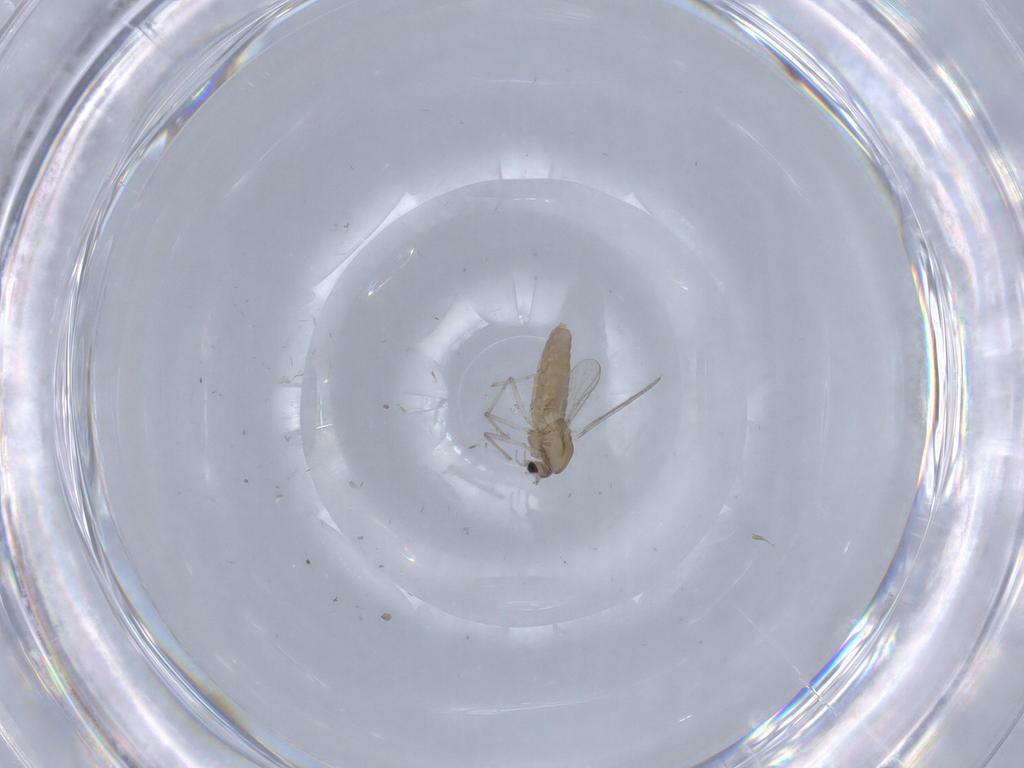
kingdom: Animalia
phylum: Arthropoda
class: Insecta
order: Diptera
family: Chironomidae
